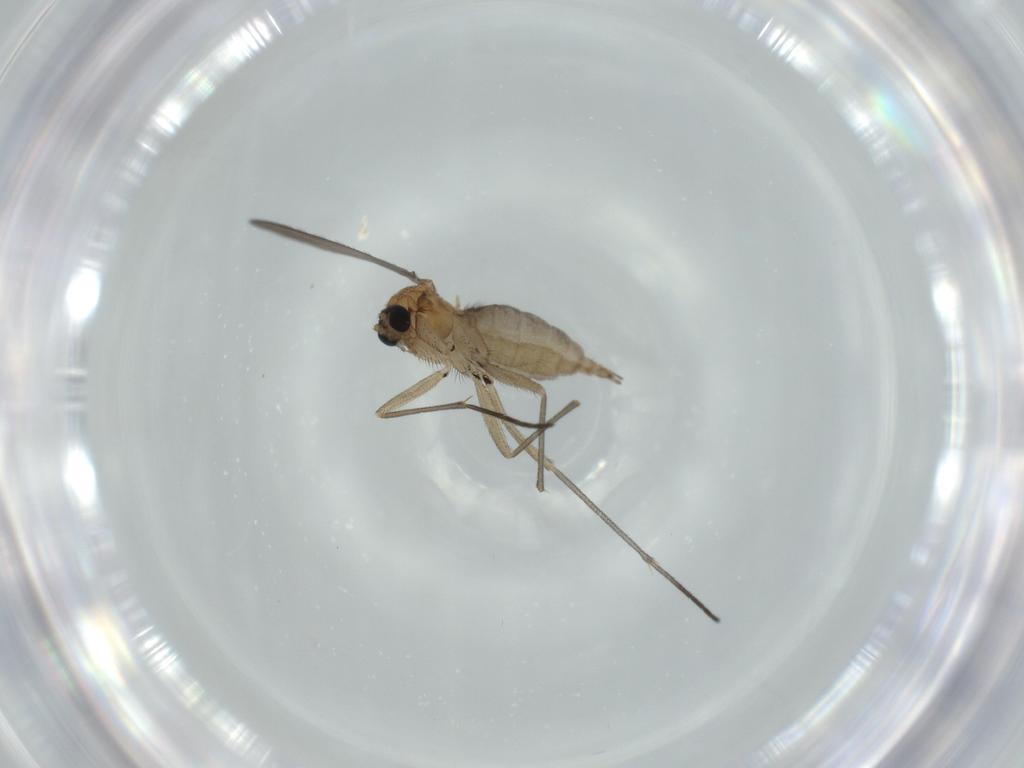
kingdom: Animalia
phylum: Arthropoda
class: Insecta
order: Diptera
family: Sciaridae
